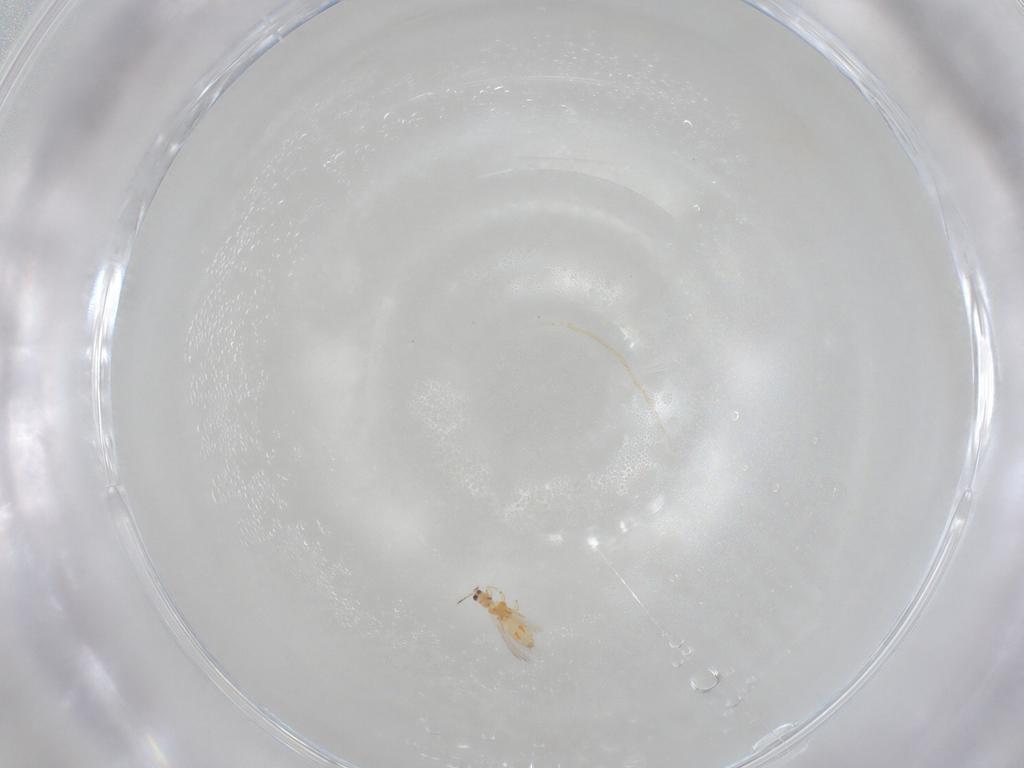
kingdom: Animalia
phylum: Arthropoda
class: Insecta
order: Thysanoptera
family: Thripidae
